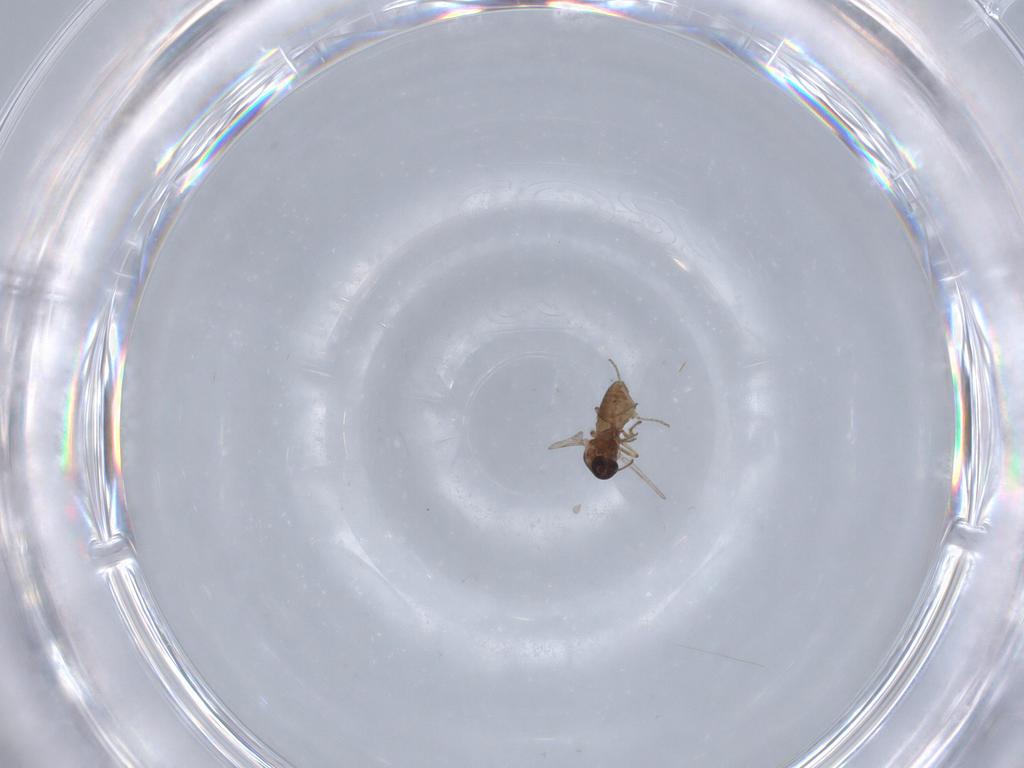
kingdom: Animalia
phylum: Arthropoda
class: Insecta
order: Diptera
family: Ceratopogonidae
